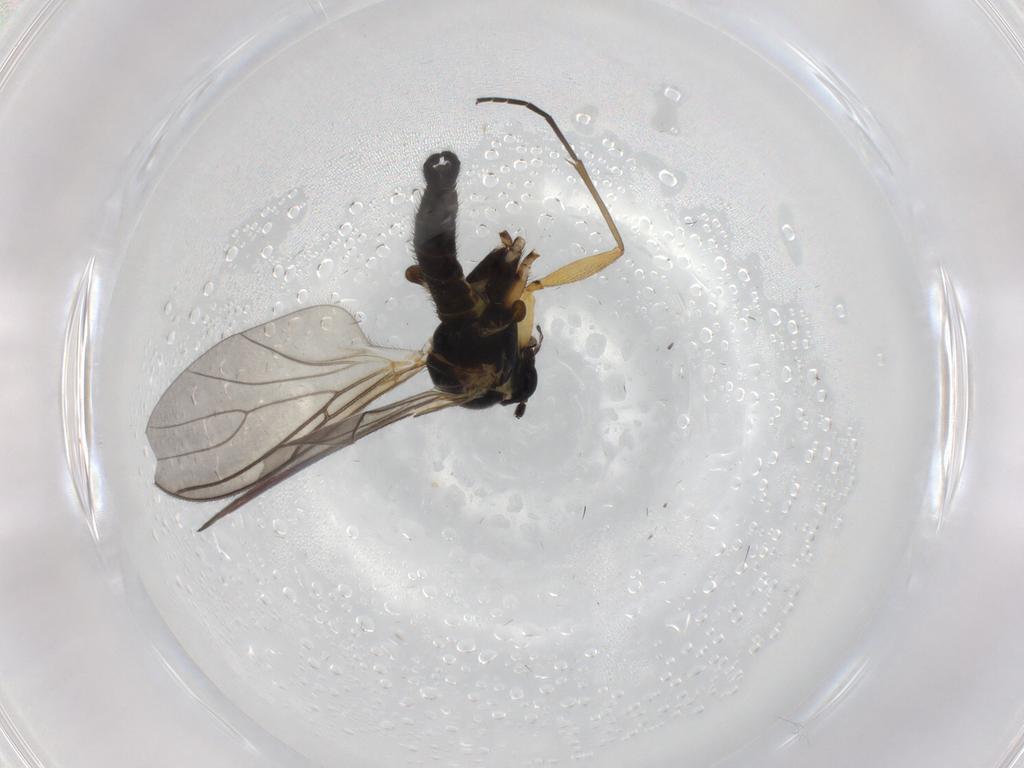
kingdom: Animalia
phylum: Arthropoda
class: Insecta
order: Diptera
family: Sciaridae
